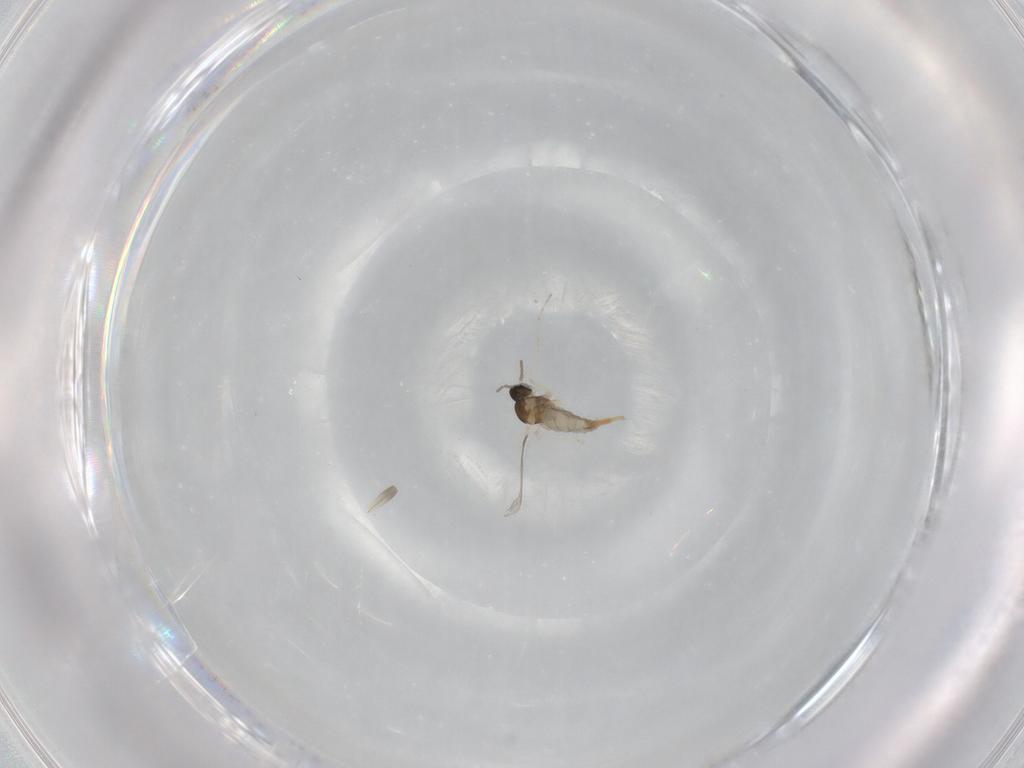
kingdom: Animalia
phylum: Arthropoda
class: Insecta
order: Diptera
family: Cecidomyiidae
